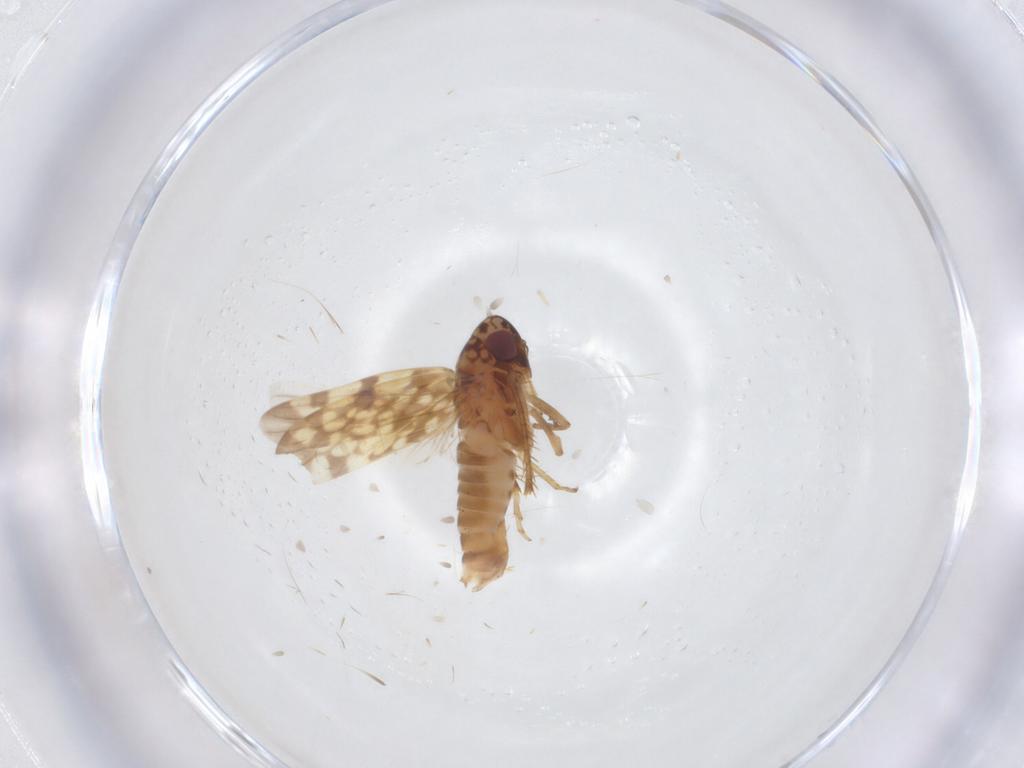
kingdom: Animalia
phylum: Arthropoda
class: Insecta
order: Hemiptera
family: Cicadellidae
